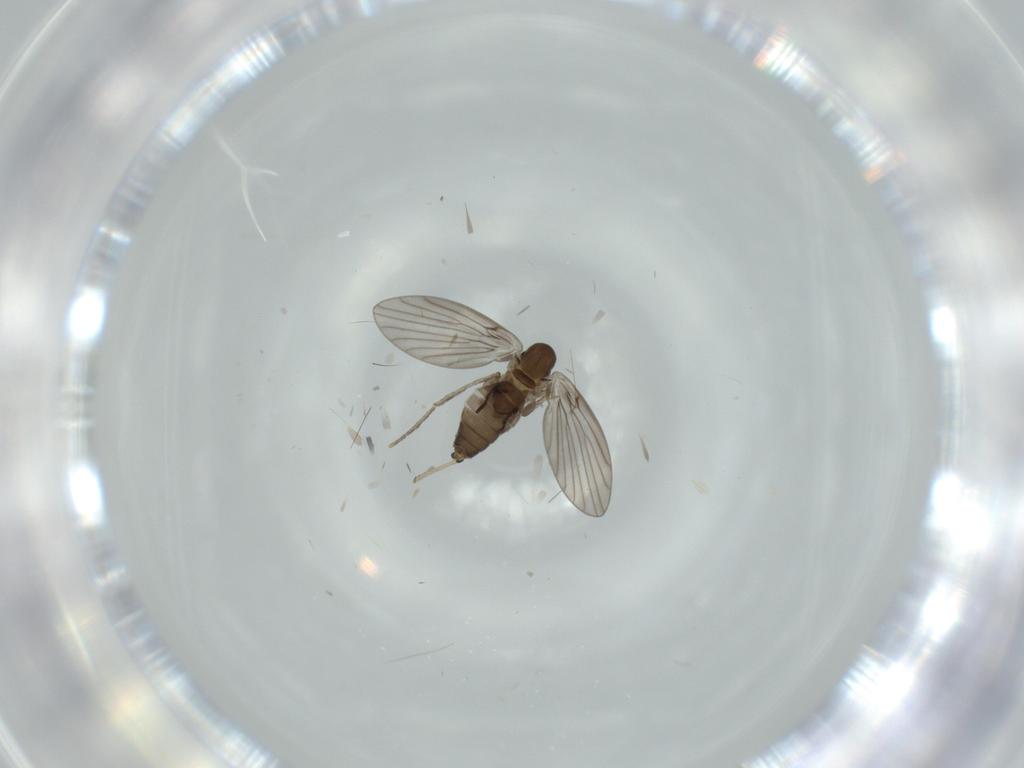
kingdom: Animalia
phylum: Arthropoda
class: Insecta
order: Diptera
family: Psychodidae
